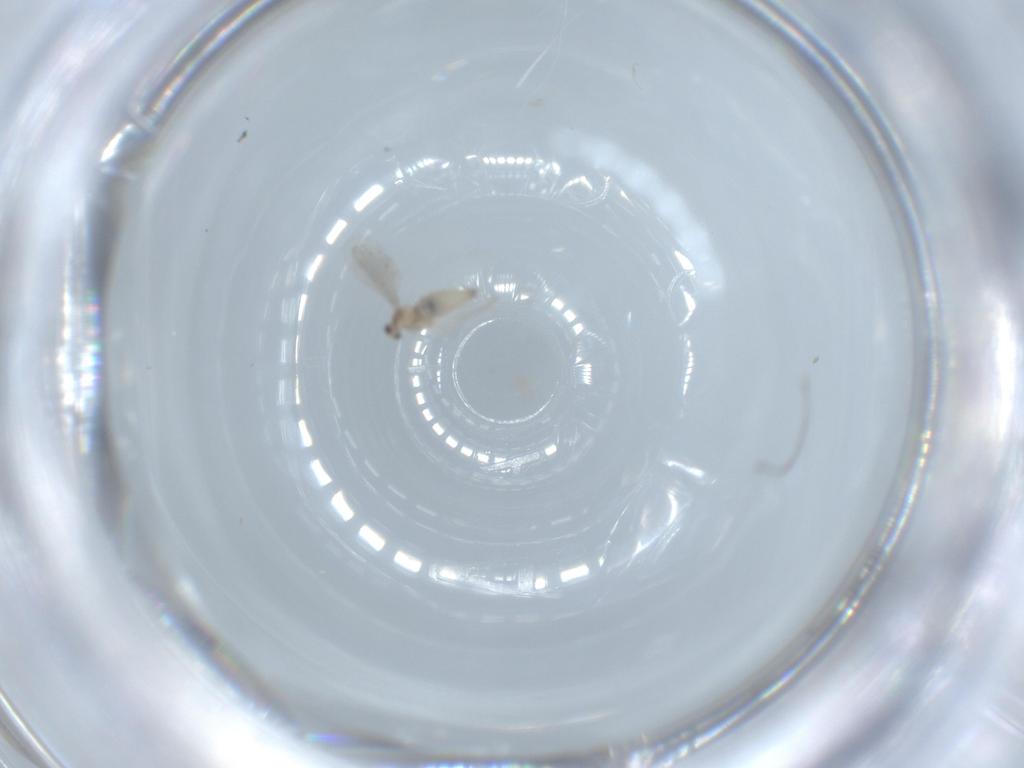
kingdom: Animalia
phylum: Arthropoda
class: Insecta
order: Diptera
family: Cecidomyiidae
